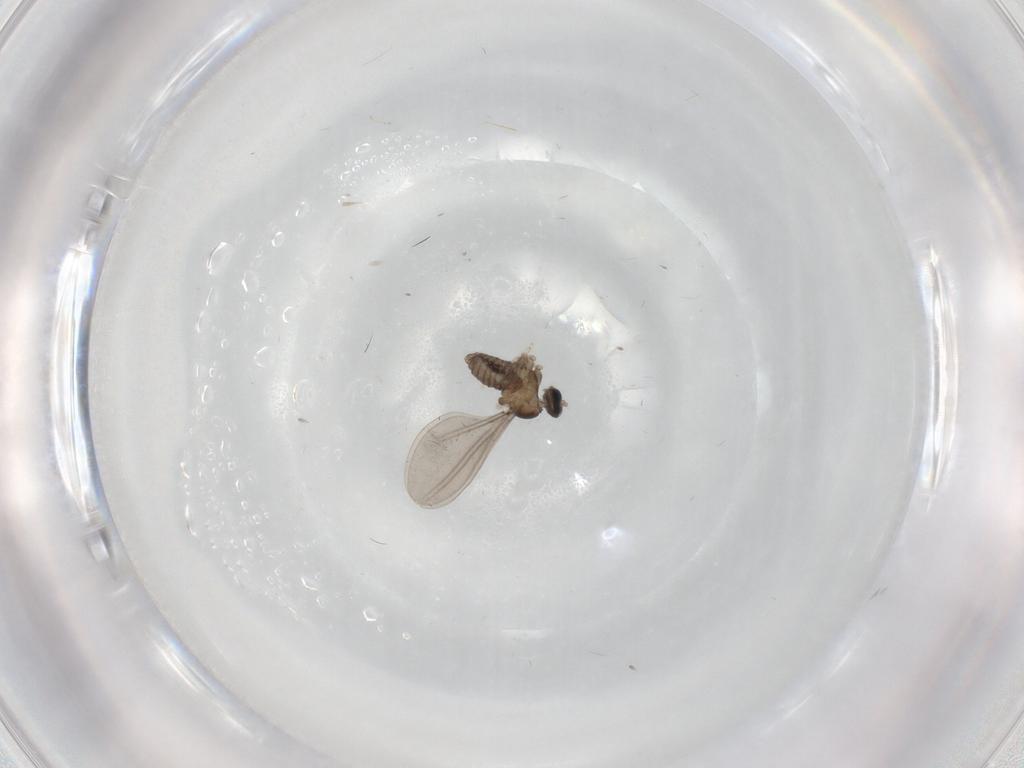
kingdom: Animalia
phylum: Arthropoda
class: Insecta
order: Diptera
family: Cecidomyiidae
